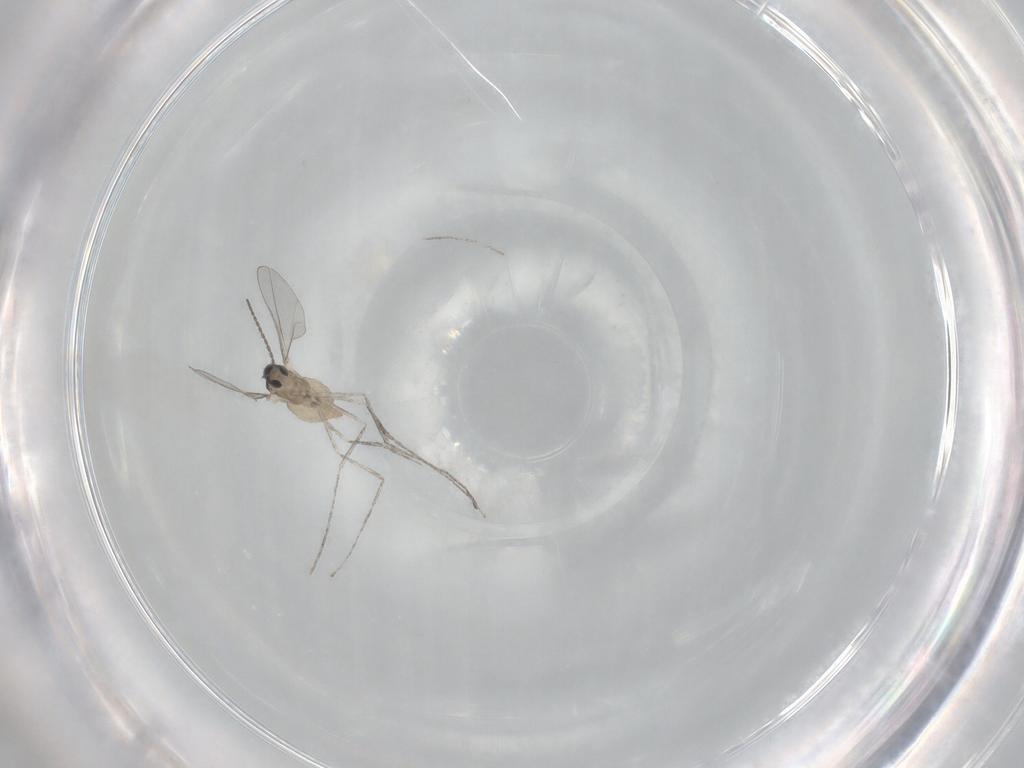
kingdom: Animalia
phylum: Arthropoda
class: Insecta
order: Diptera
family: Cecidomyiidae
